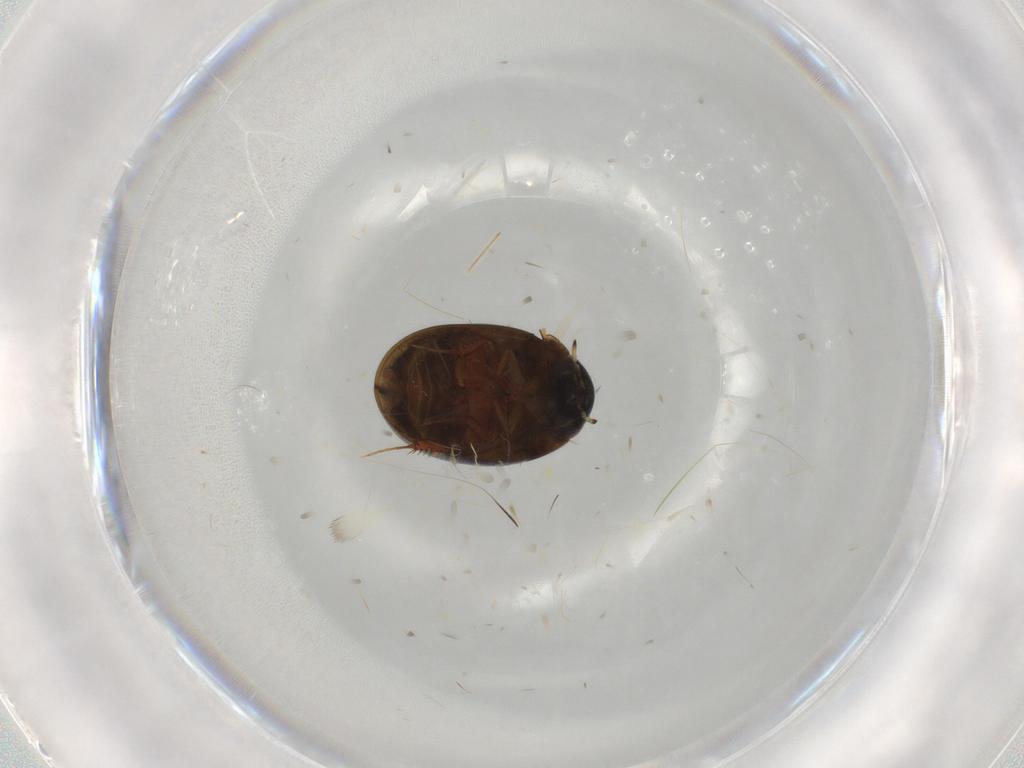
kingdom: Animalia
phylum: Arthropoda
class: Insecta
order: Coleoptera
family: Hydrophilidae
